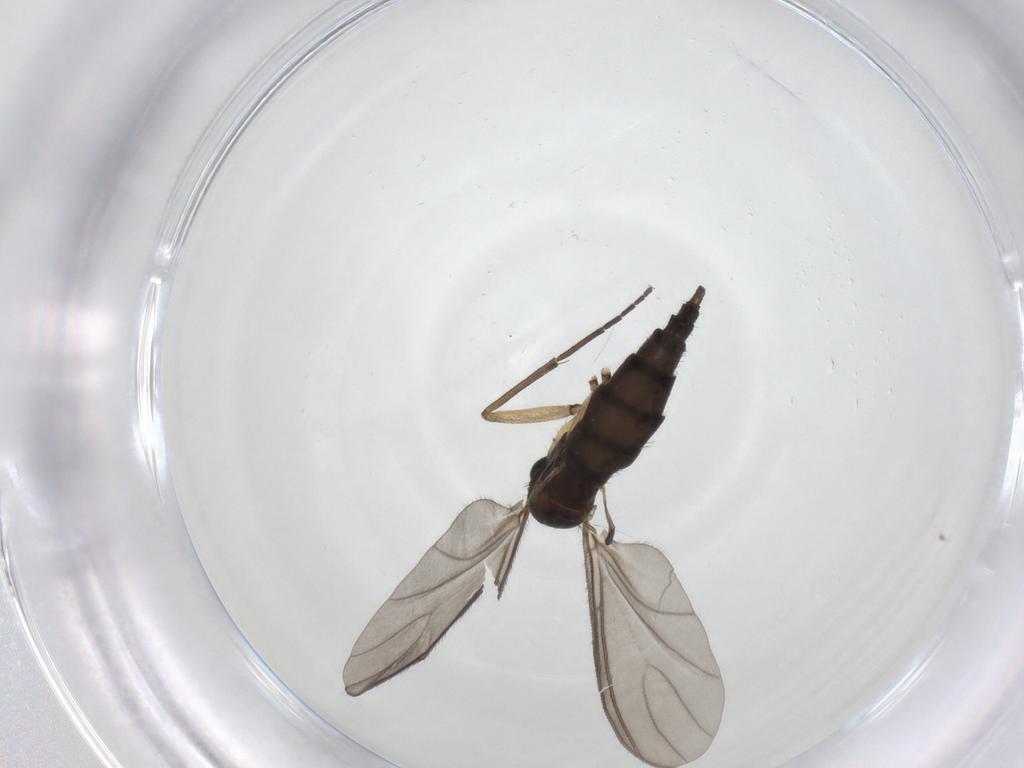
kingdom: Animalia
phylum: Arthropoda
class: Insecta
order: Diptera
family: Sciaridae
